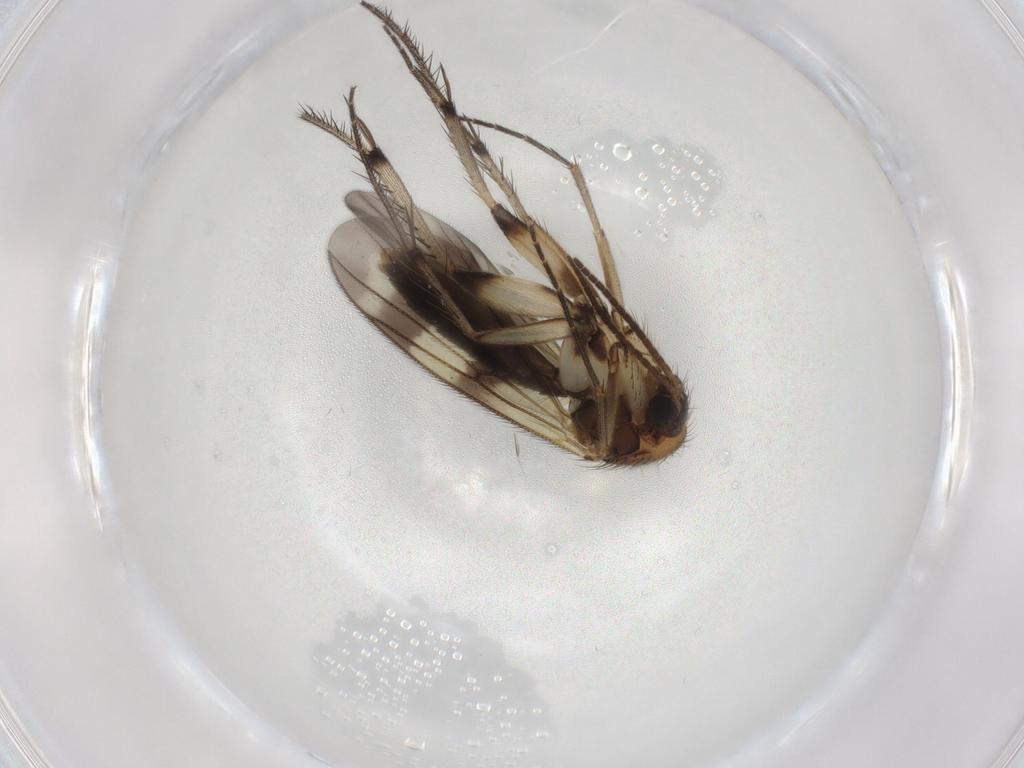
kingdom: Animalia
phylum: Arthropoda
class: Insecta
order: Diptera
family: Mycetophilidae
